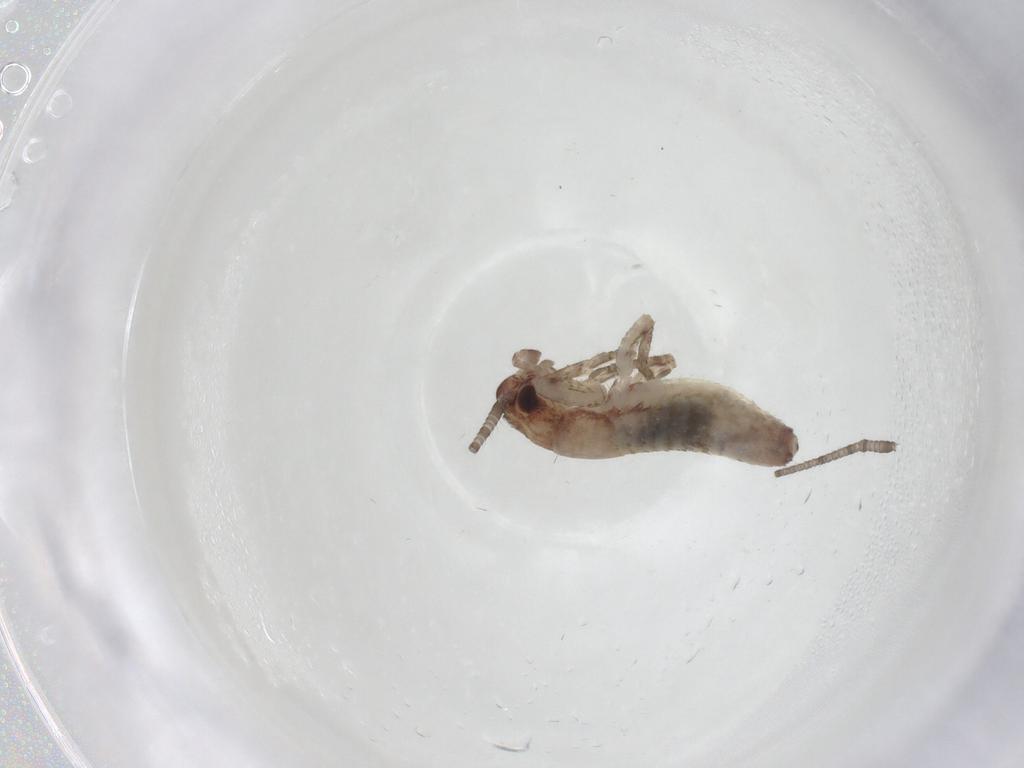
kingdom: Animalia
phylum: Arthropoda
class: Insecta
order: Orthoptera
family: Gryllidae
